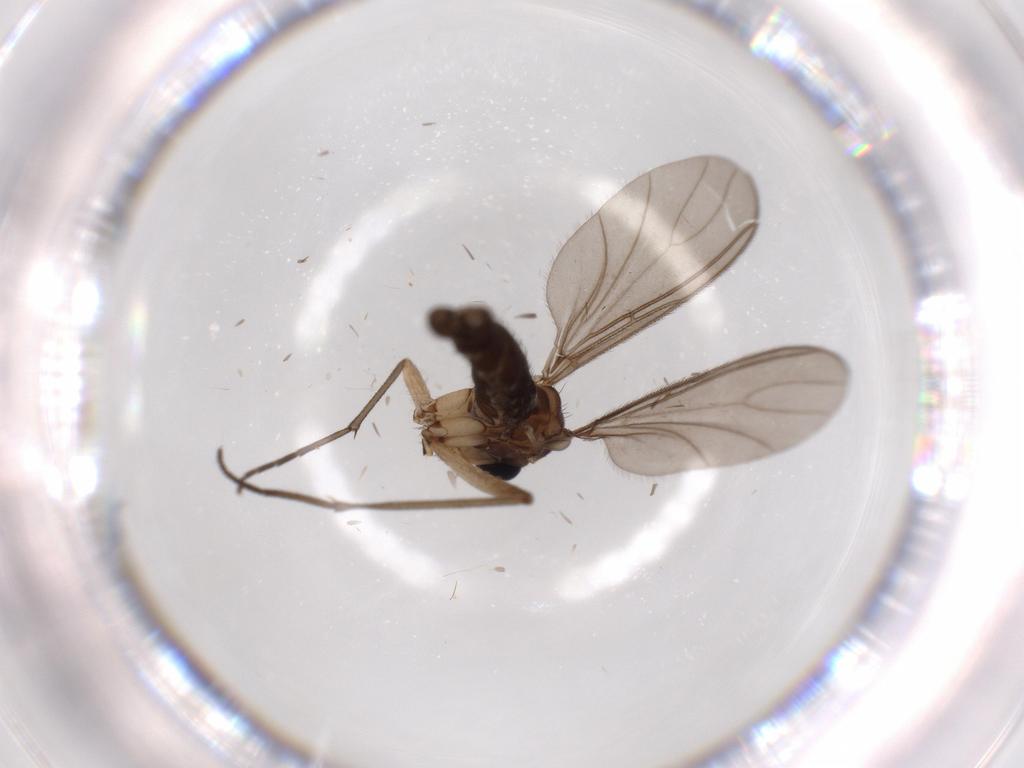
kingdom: Animalia
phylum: Arthropoda
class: Insecta
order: Diptera
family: Sciaridae
